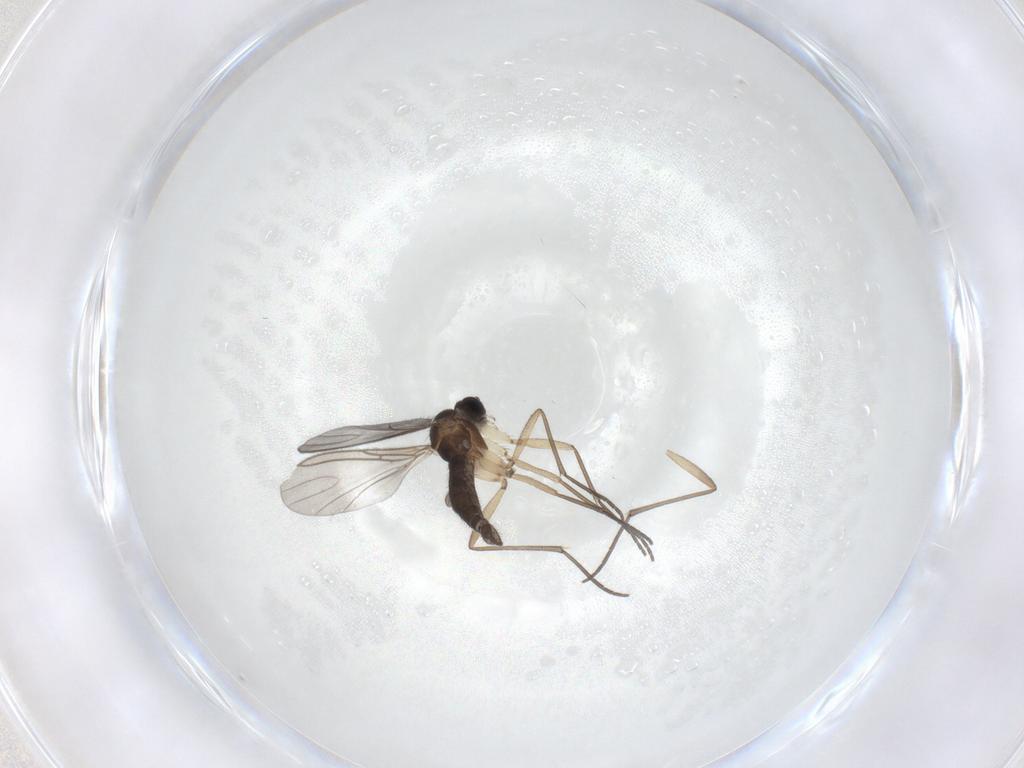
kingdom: Animalia
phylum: Arthropoda
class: Insecta
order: Diptera
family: Sciaridae
